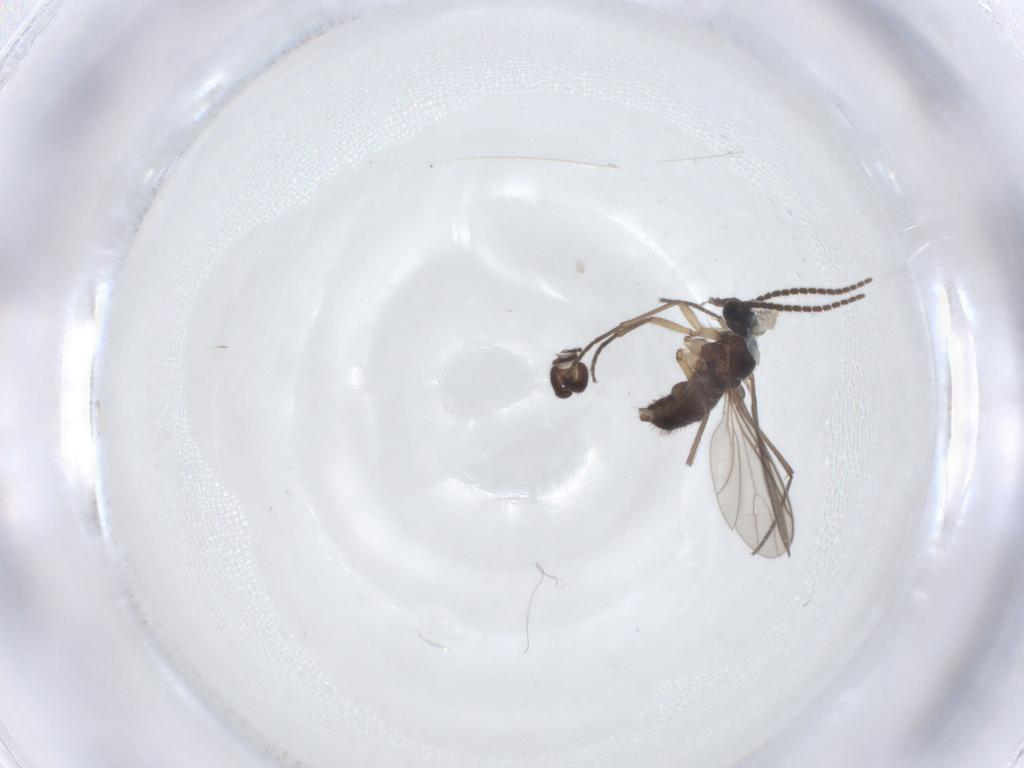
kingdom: Animalia
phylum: Arthropoda
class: Insecta
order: Diptera
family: Sciaridae
